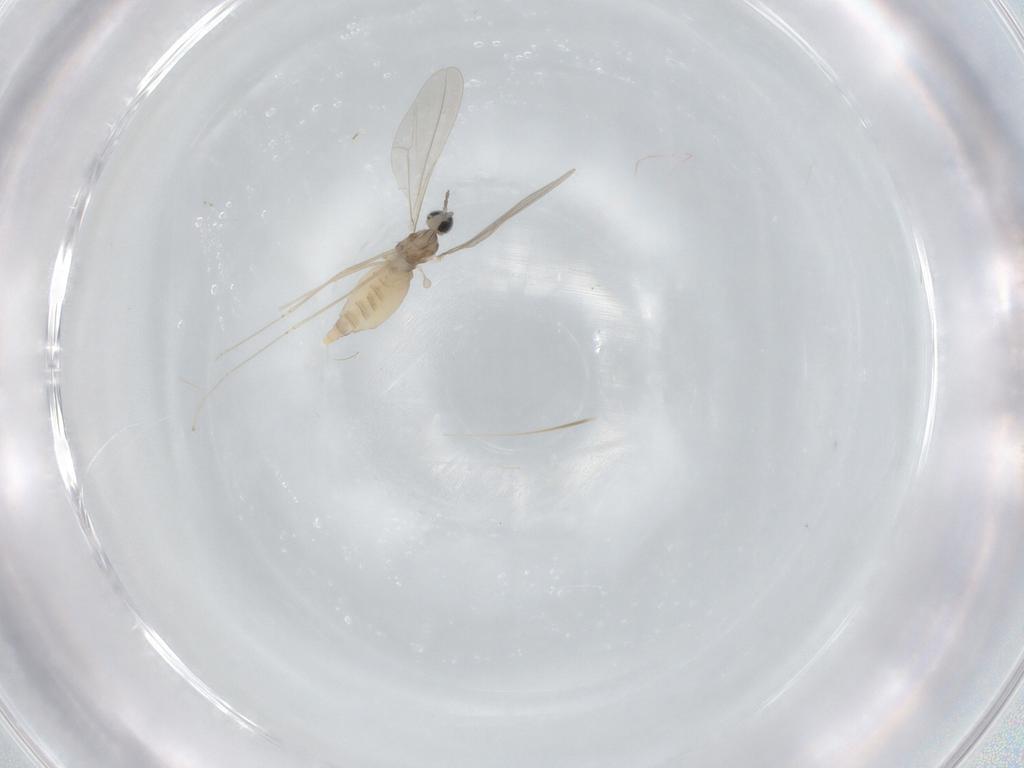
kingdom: Animalia
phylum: Arthropoda
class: Insecta
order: Diptera
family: Cecidomyiidae
